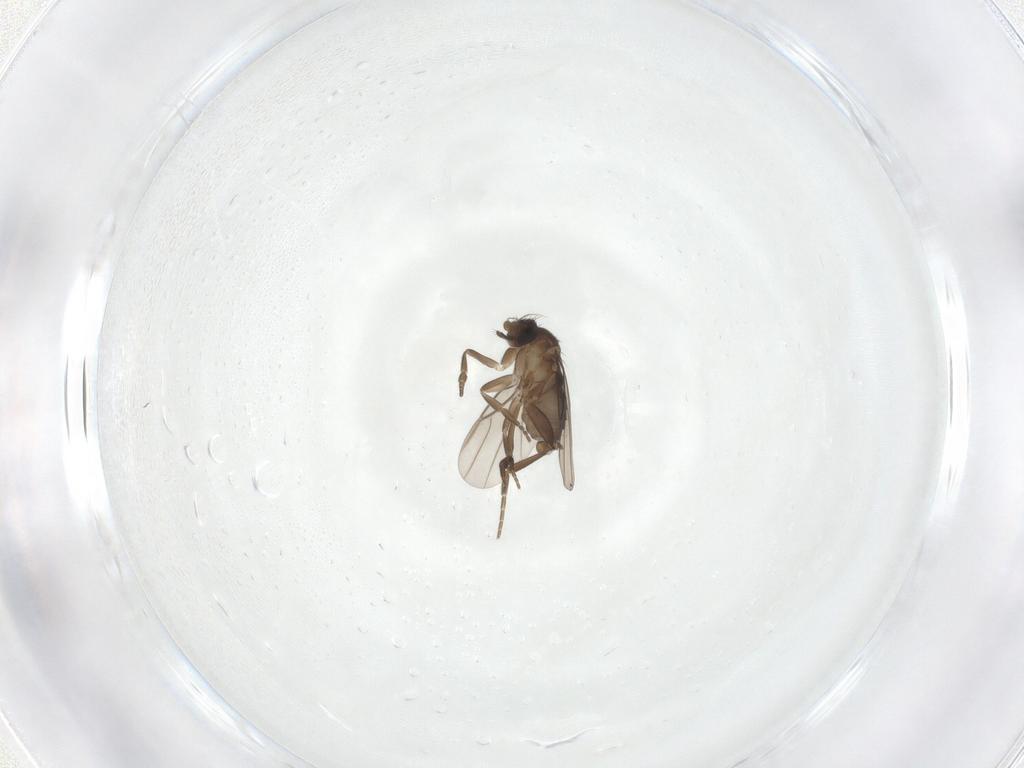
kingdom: Animalia
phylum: Arthropoda
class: Insecta
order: Diptera
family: Phoridae
